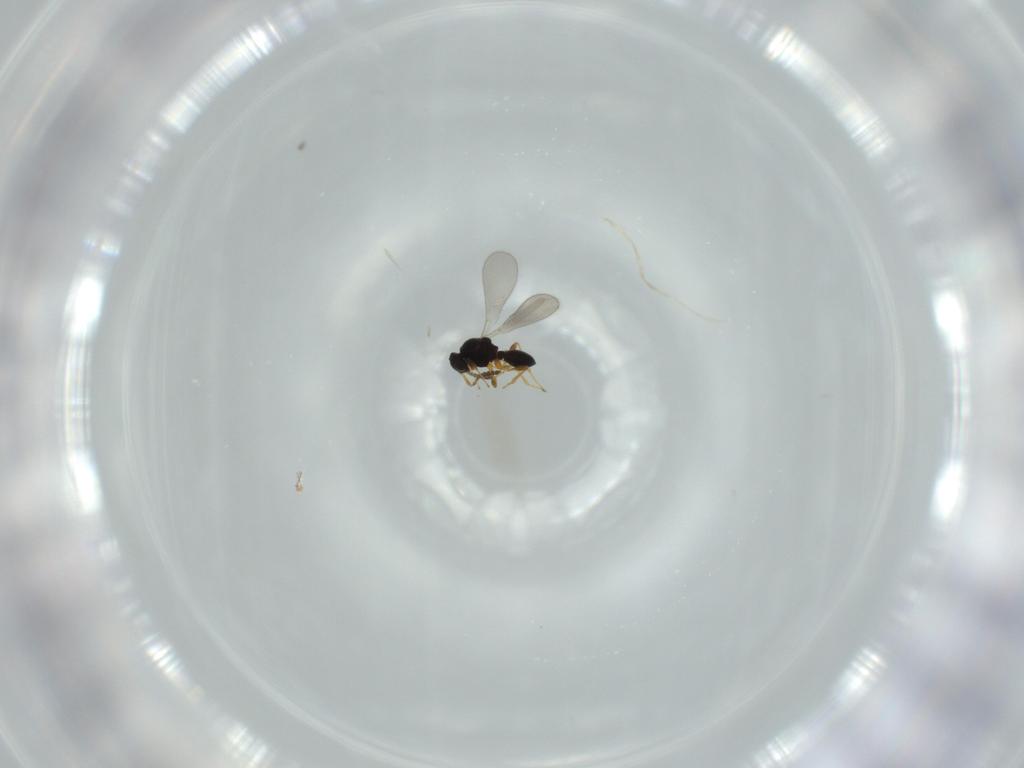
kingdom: Animalia
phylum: Arthropoda
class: Insecta
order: Hymenoptera
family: Platygastridae
